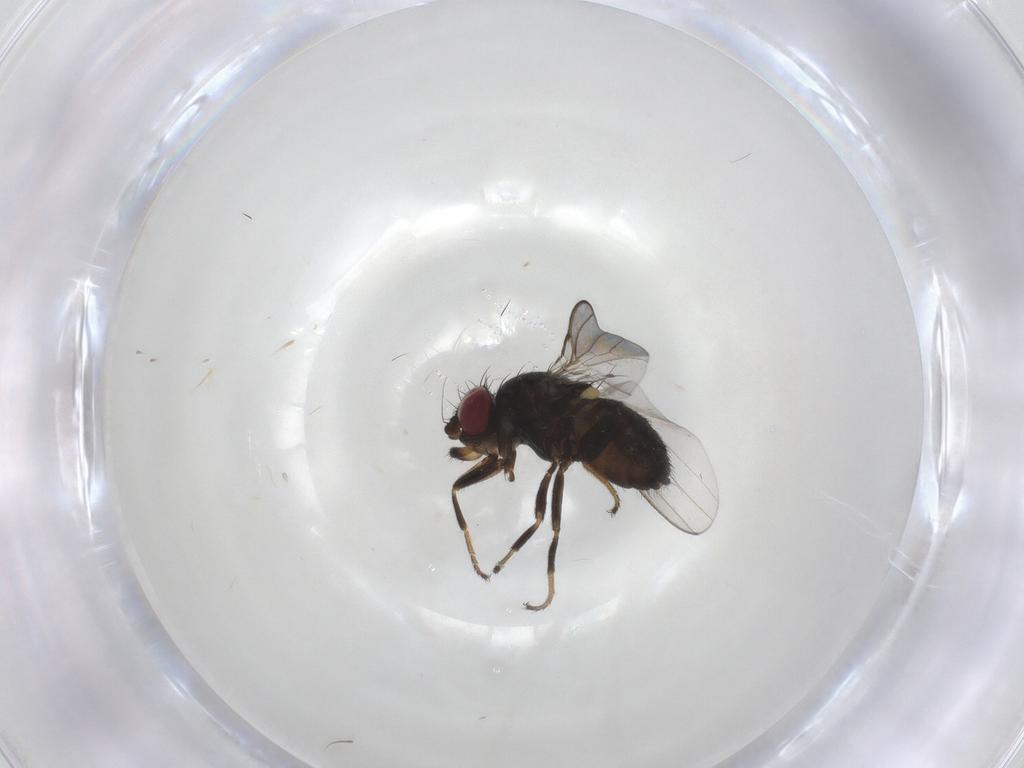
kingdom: Animalia
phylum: Arthropoda
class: Insecta
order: Diptera
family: Milichiidae
